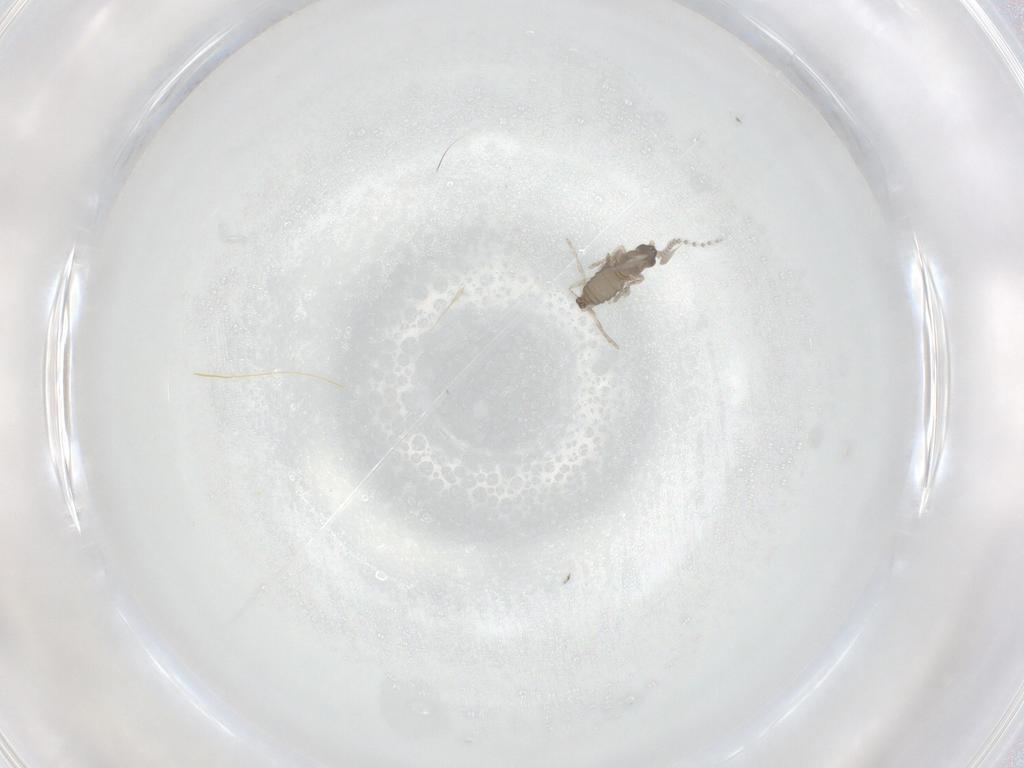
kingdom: Animalia
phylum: Arthropoda
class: Insecta
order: Diptera
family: Cecidomyiidae
